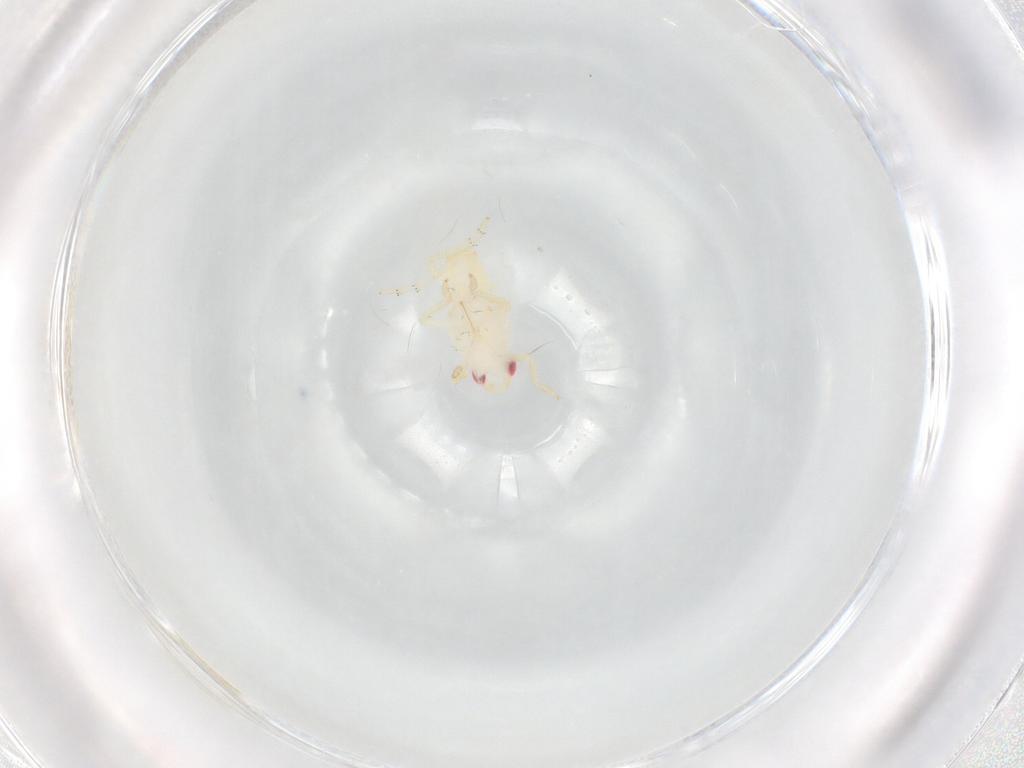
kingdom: Animalia
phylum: Arthropoda
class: Insecta
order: Hemiptera
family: Tropiduchidae
